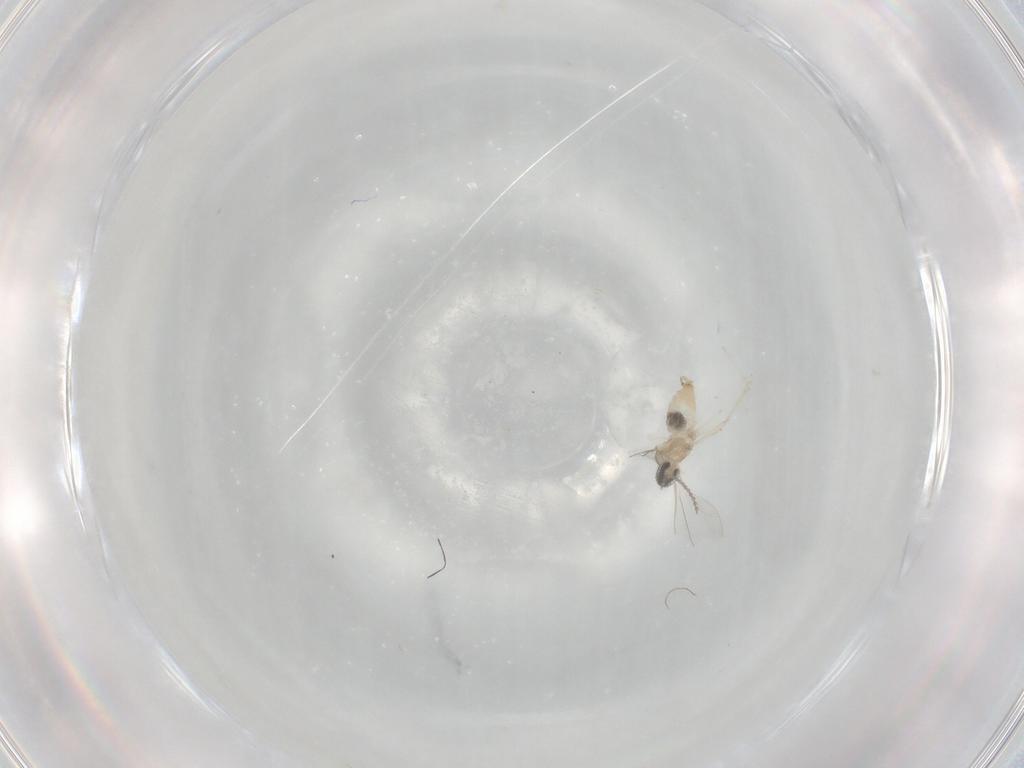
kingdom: Animalia
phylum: Arthropoda
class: Insecta
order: Diptera
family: Cecidomyiidae
